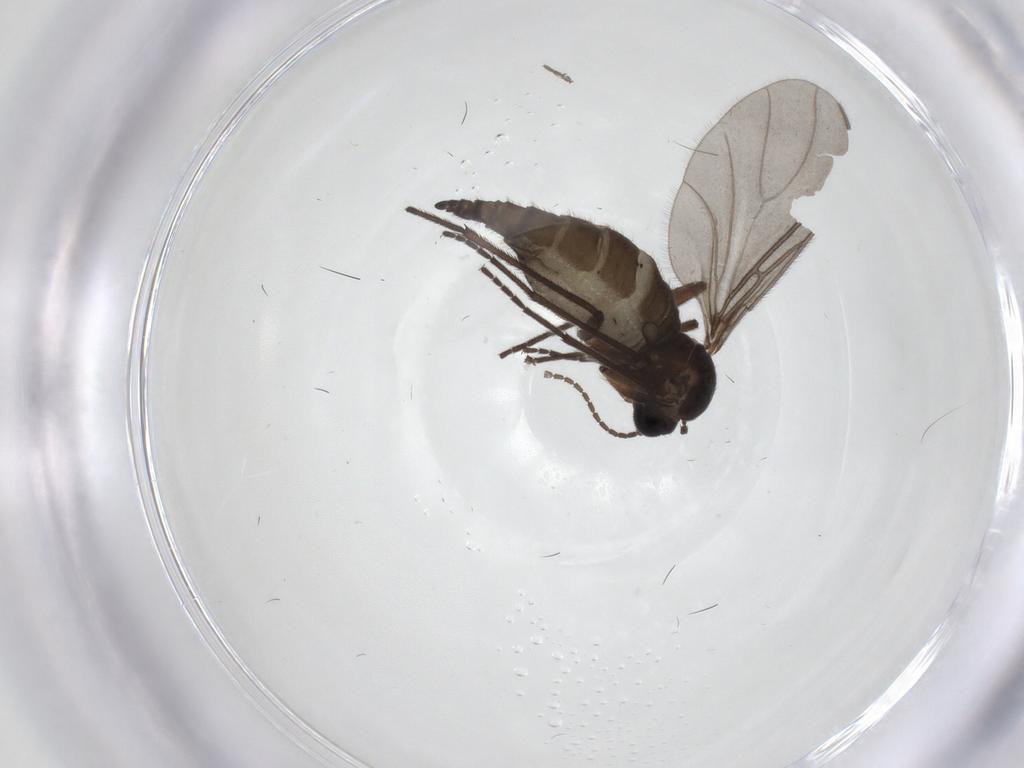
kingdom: Animalia
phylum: Arthropoda
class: Insecta
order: Diptera
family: Sciaridae
